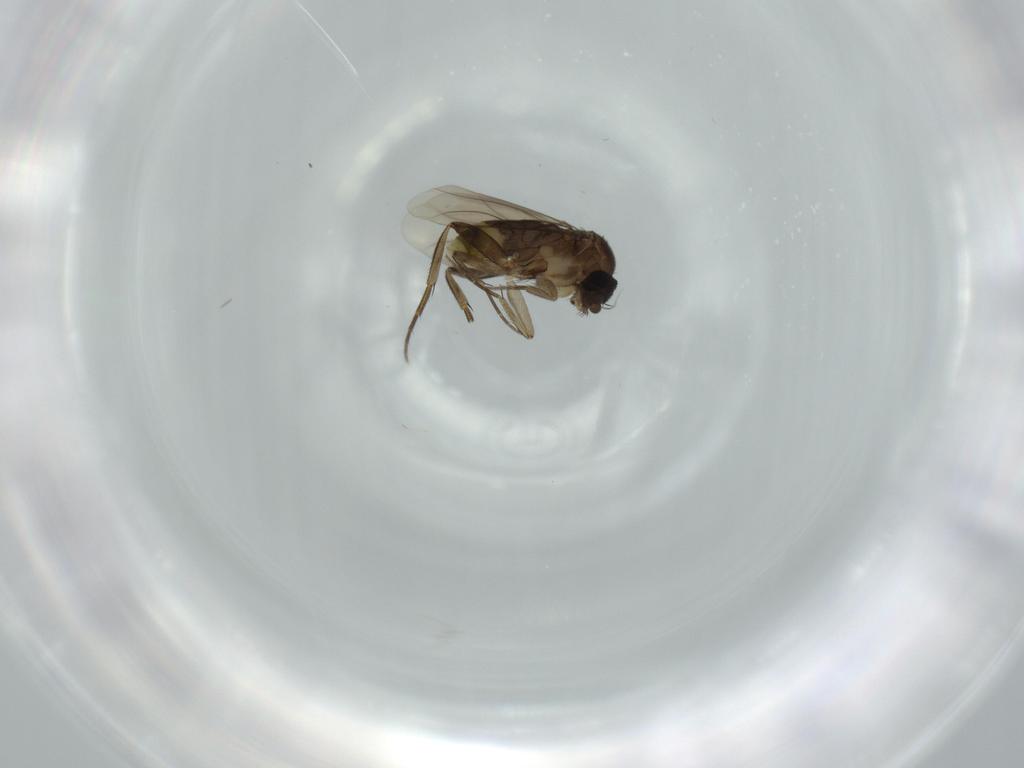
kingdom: Animalia
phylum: Arthropoda
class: Insecta
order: Diptera
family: Phoridae
